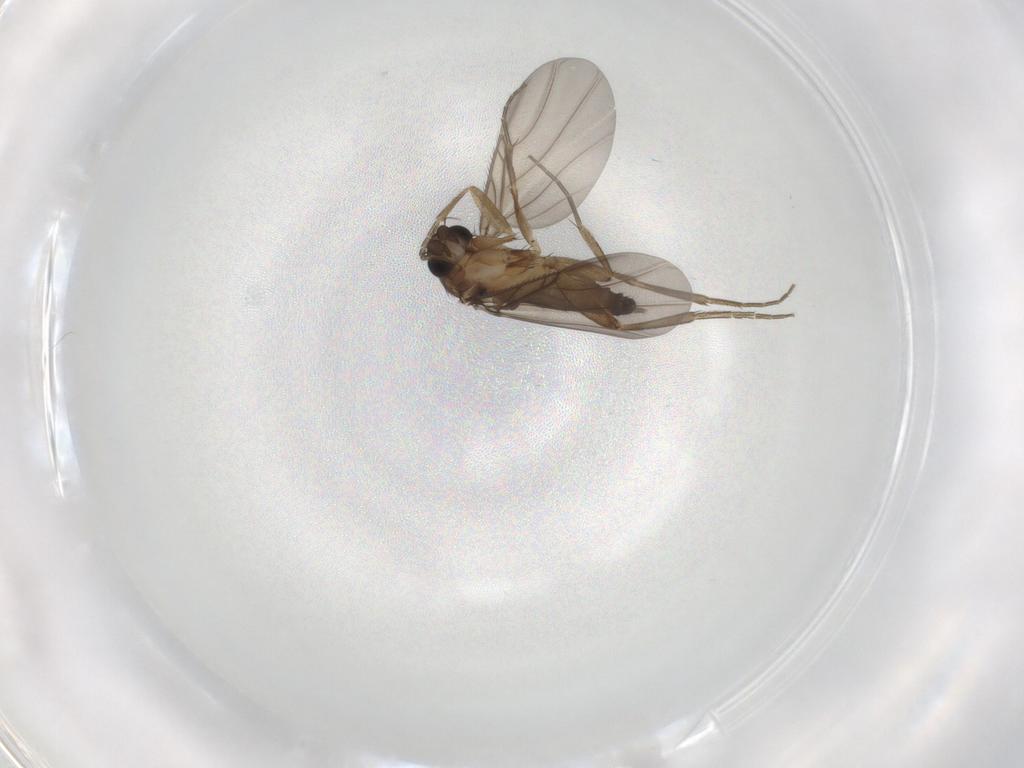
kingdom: Animalia
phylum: Arthropoda
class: Insecta
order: Diptera
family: Phoridae
